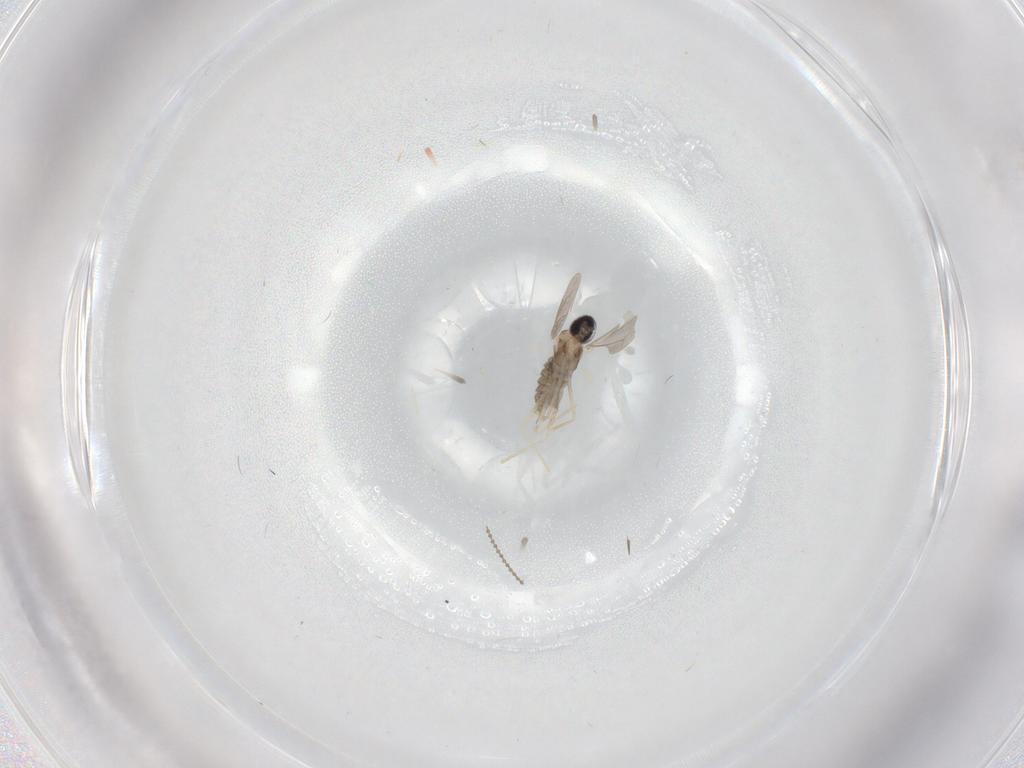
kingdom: Animalia
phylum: Arthropoda
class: Insecta
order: Diptera
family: Cecidomyiidae
